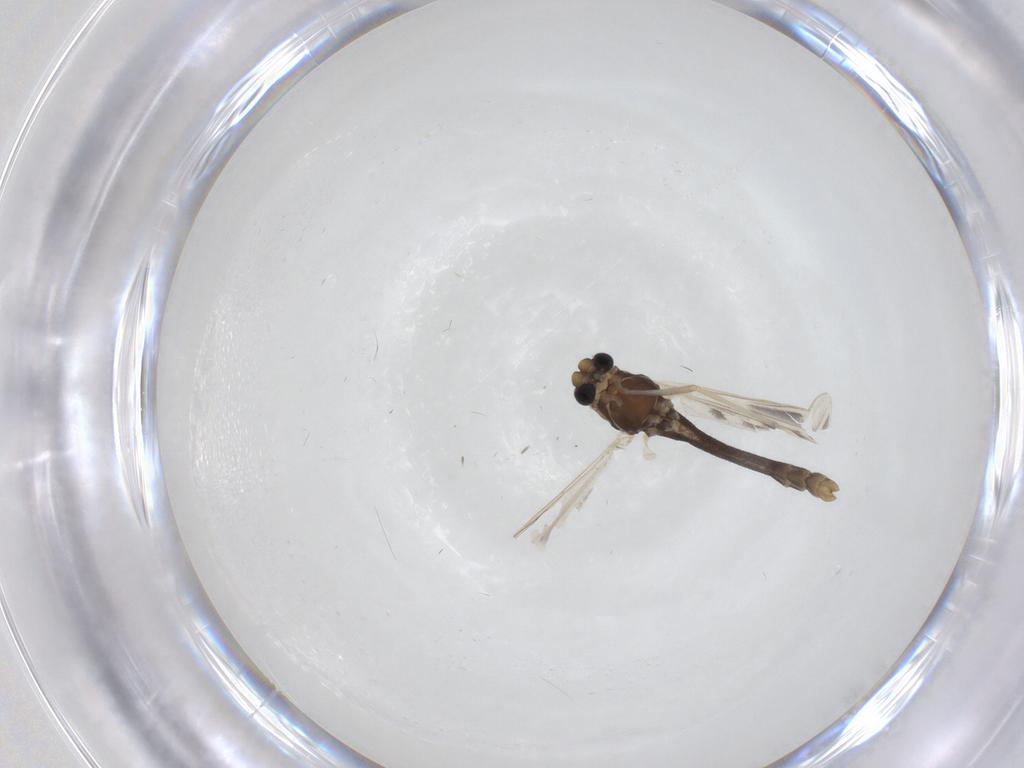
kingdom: Animalia
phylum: Arthropoda
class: Insecta
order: Diptera
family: Chironomidae
